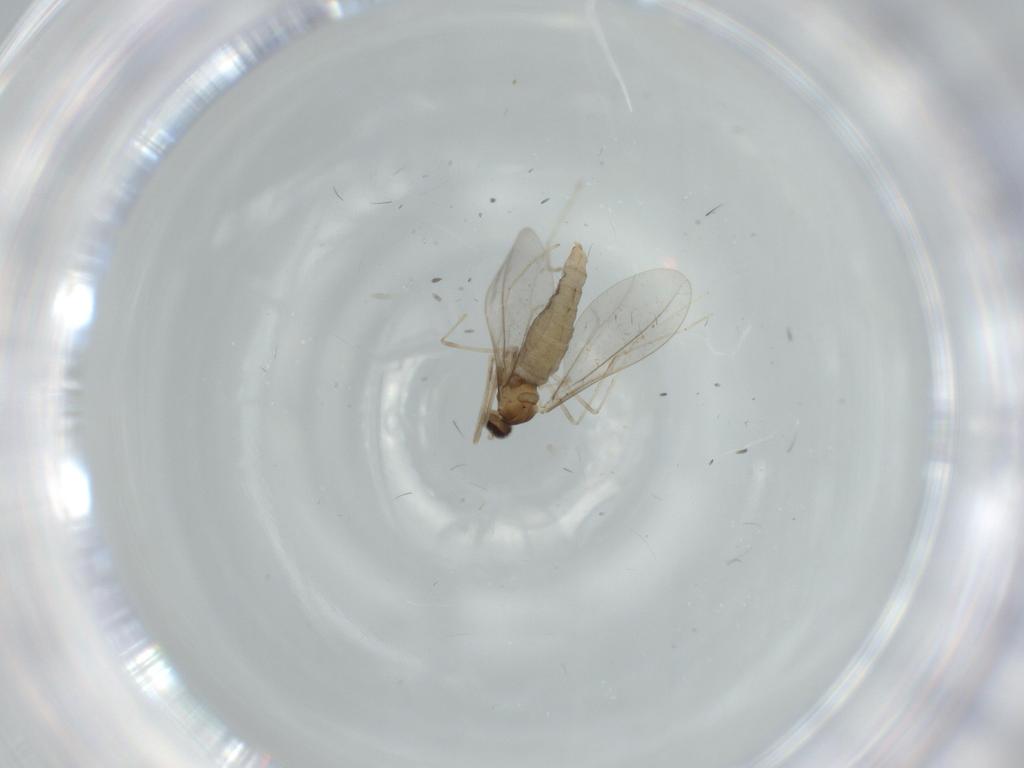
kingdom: Animalia
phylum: Arthropoda
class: Insecta
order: Diptera
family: Cecidomyiidae
